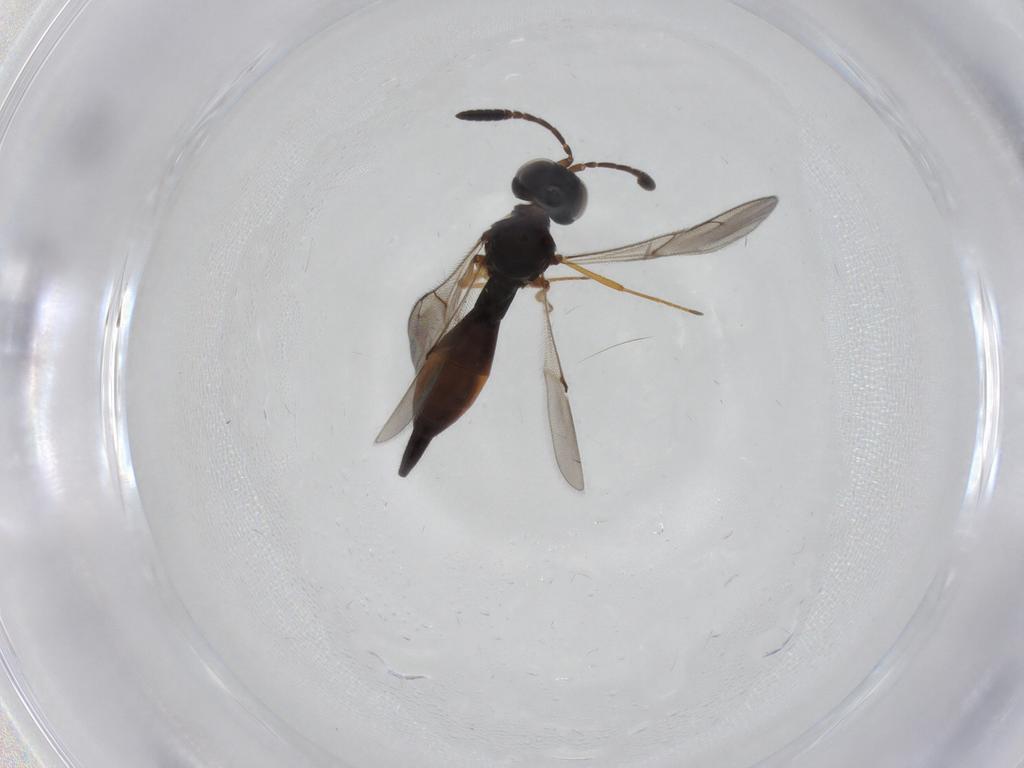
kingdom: Animalia
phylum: Arthropoda
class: Insecta
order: Hymenoptera
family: Scelionidae
